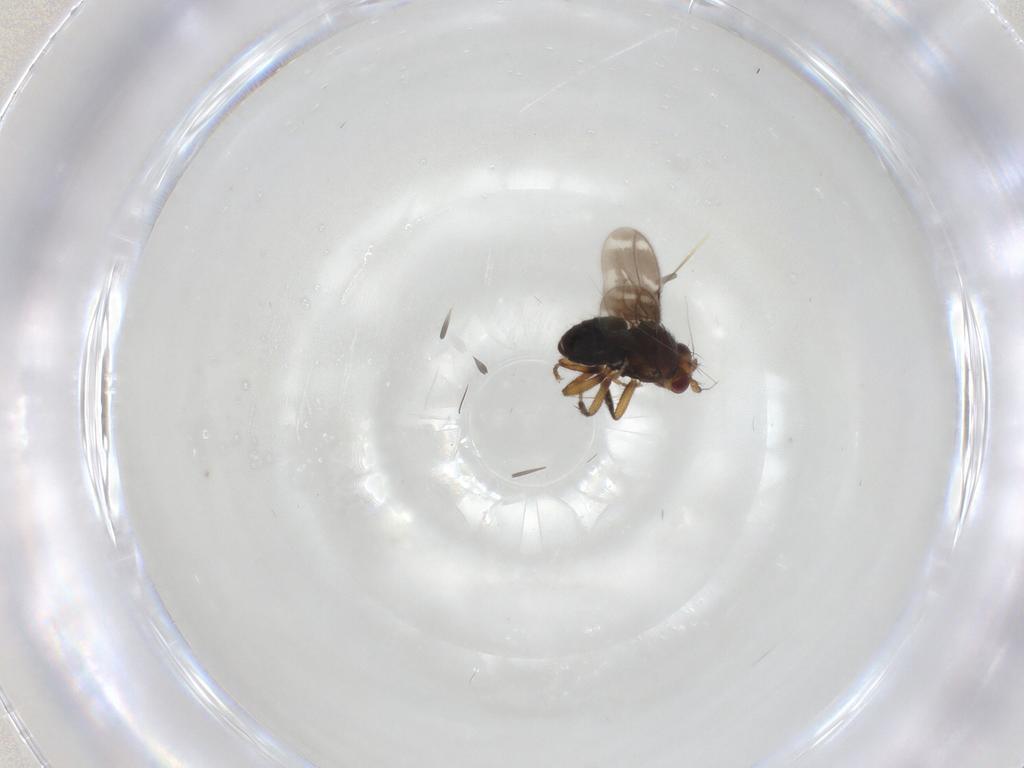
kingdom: Animalia
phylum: Arthropoda
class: Insecta
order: Diptera
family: Sphaeroceridae
